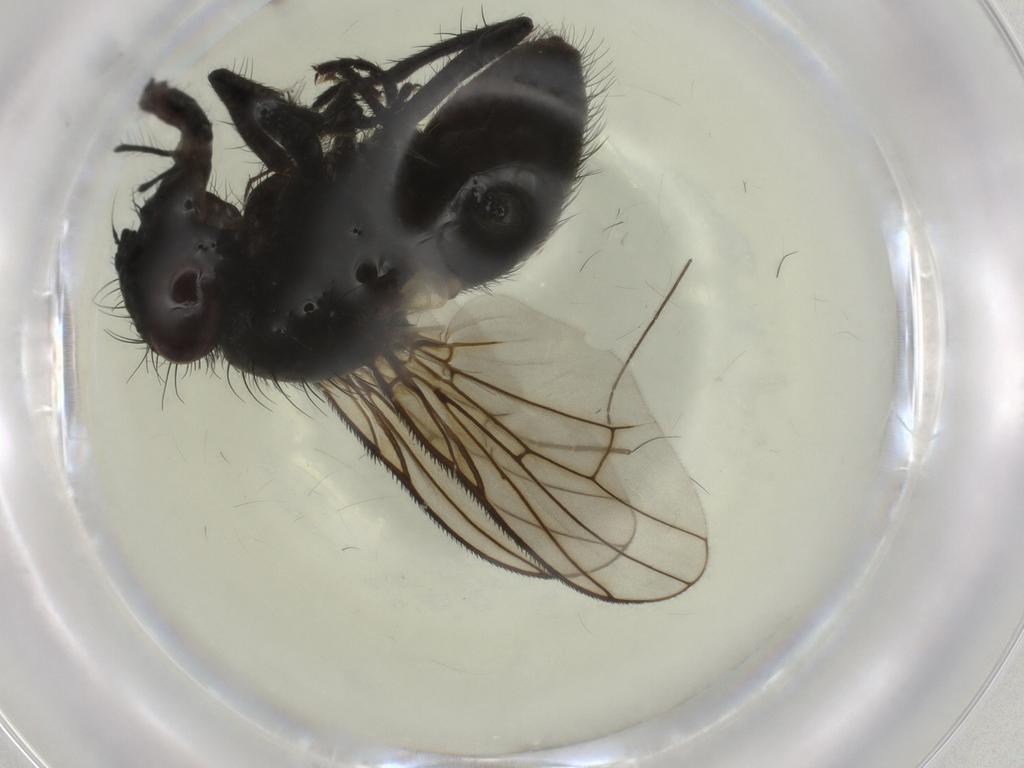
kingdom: Animalia
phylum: Arthropoda
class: Insecta
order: Diptera
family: Muscidae
